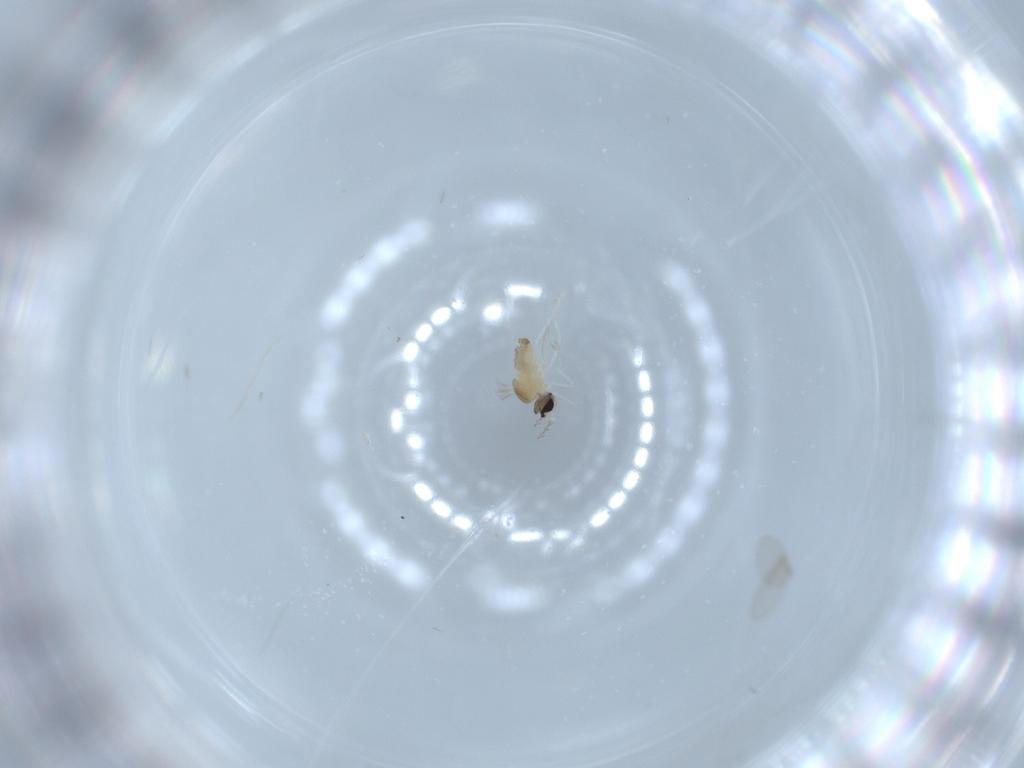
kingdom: Animalia
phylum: Arthropoda
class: Insecta
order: Diptera
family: Cecidomyiidae
